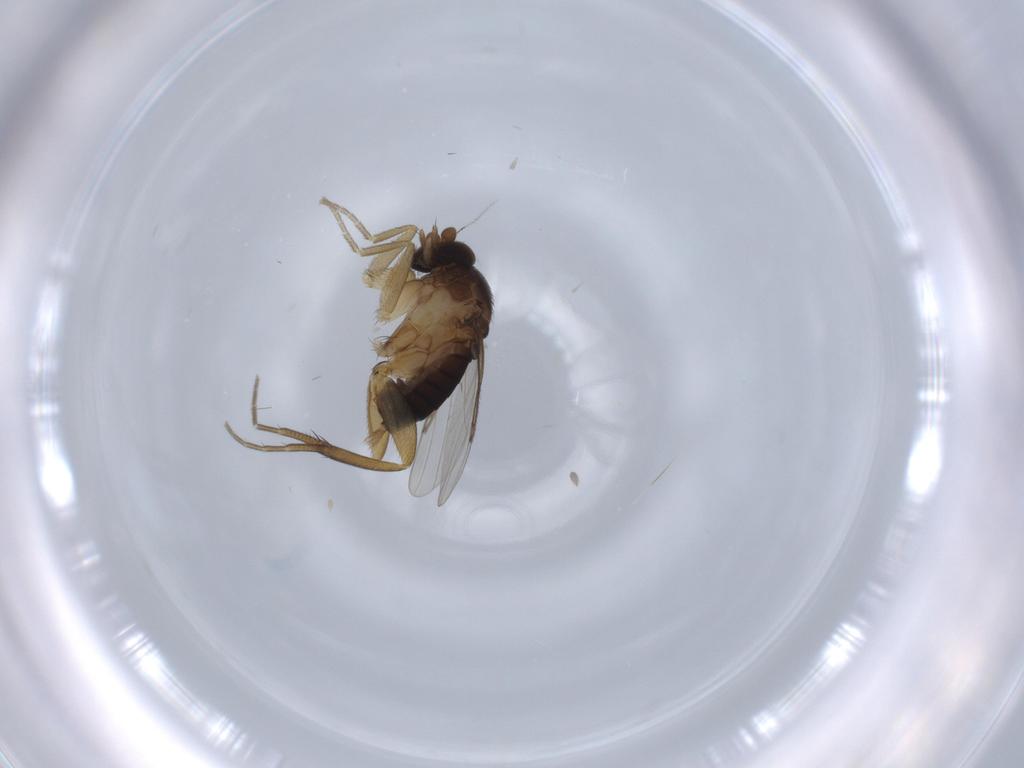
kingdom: Animalia
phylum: Arthropoda
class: Insecta
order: Diptera
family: Phoridae
